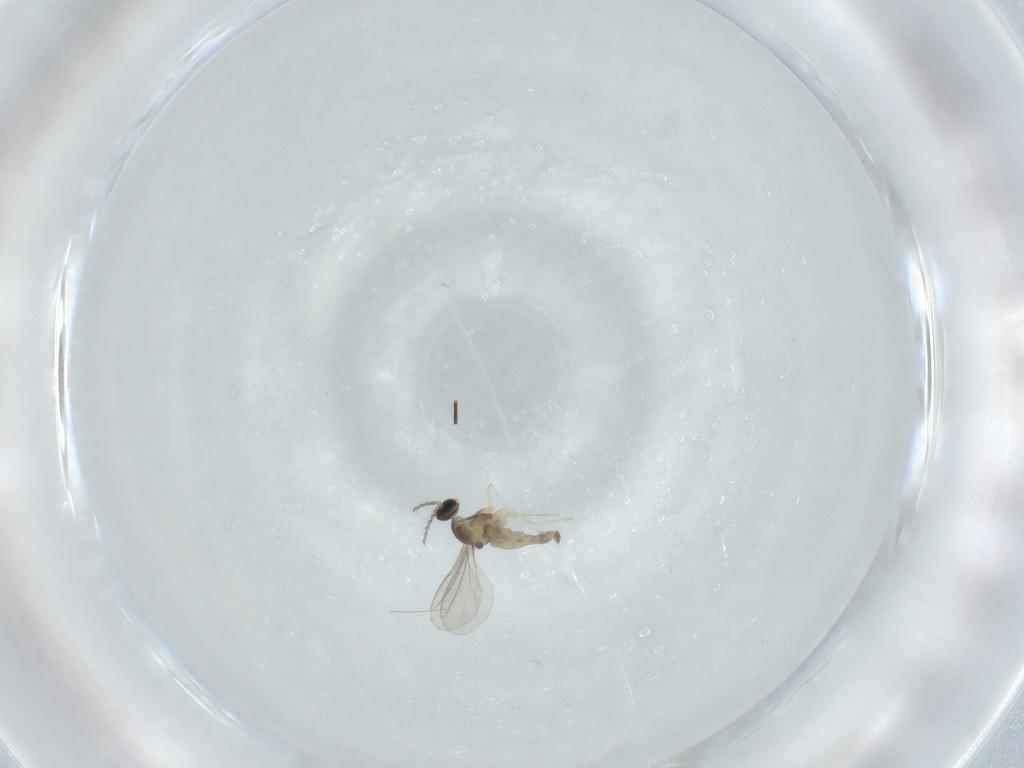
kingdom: Animalia
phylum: Arthropoda
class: Insecta
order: Diptera
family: Cecidomyiidae
